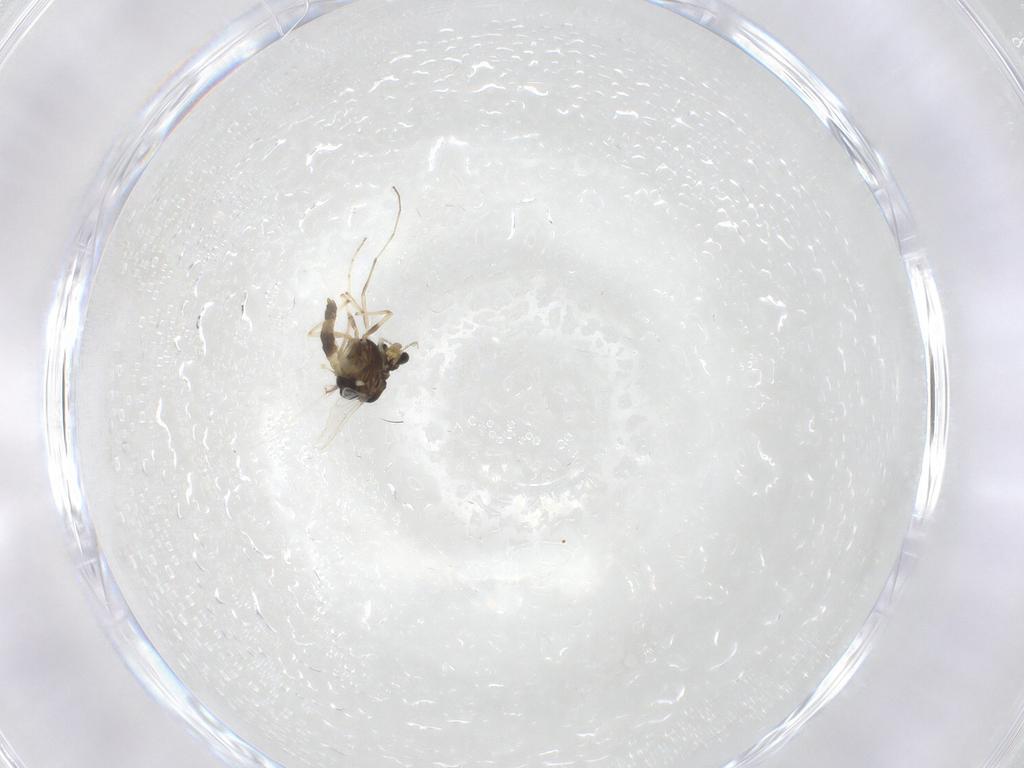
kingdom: Animalia
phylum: Arthropoda
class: Insecta
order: Diptera
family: Chironomidae
